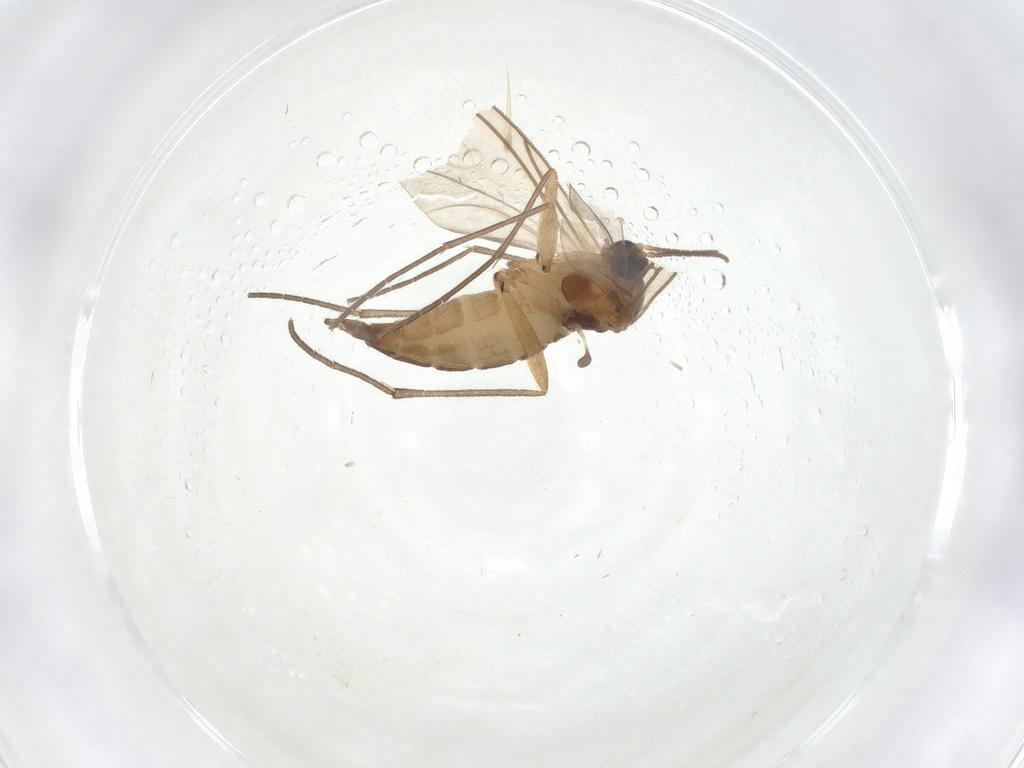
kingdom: Animalia
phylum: Arthropoda
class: Insecta
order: Diptera
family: Sciaridae
